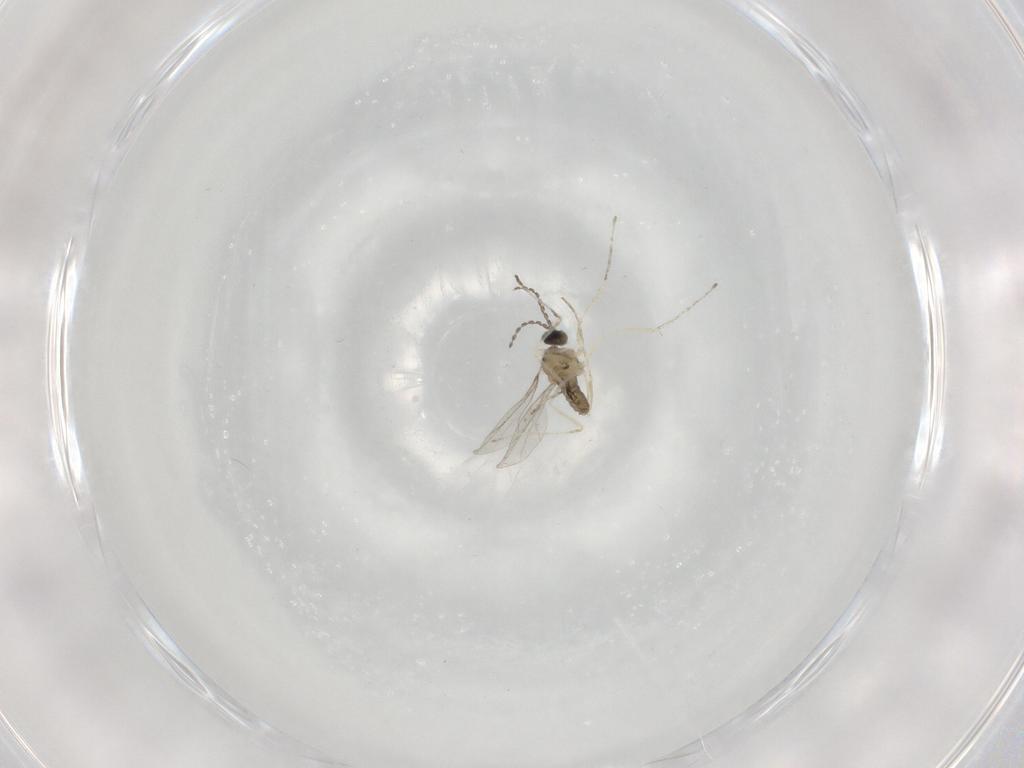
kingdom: Animalia
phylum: Arthropoda
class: Insecta
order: Diptera
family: Cecidomyiidae
